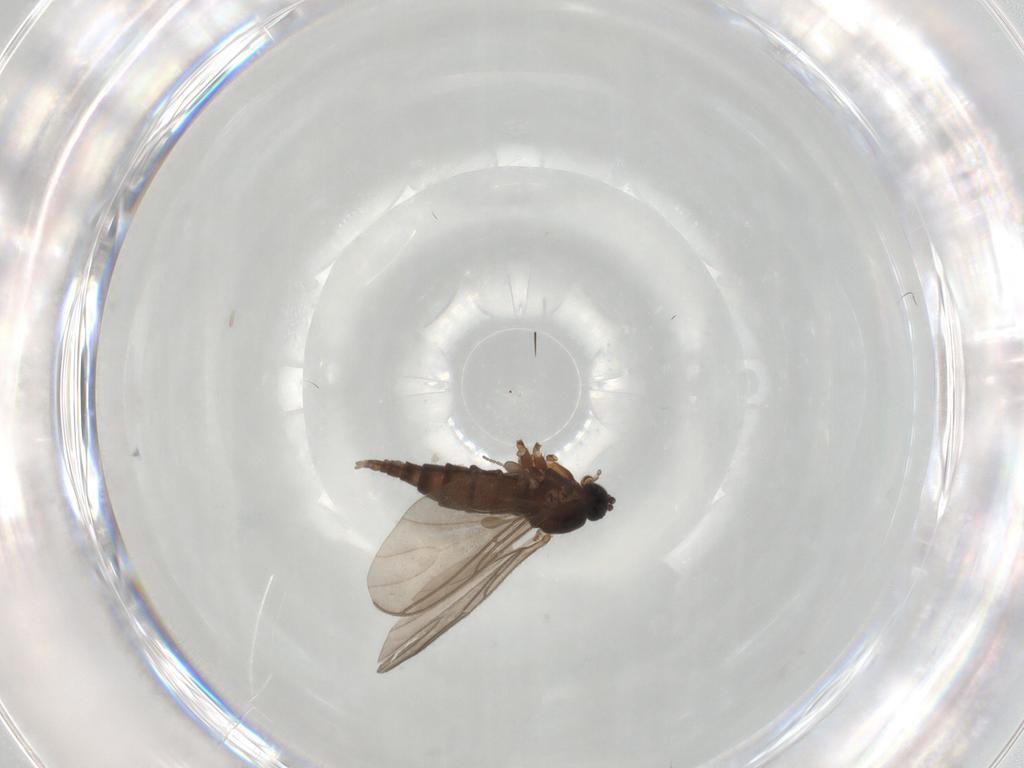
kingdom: Animalia
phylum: Arthropoda
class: Insecta
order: Diptera
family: Cecidomyiidae
